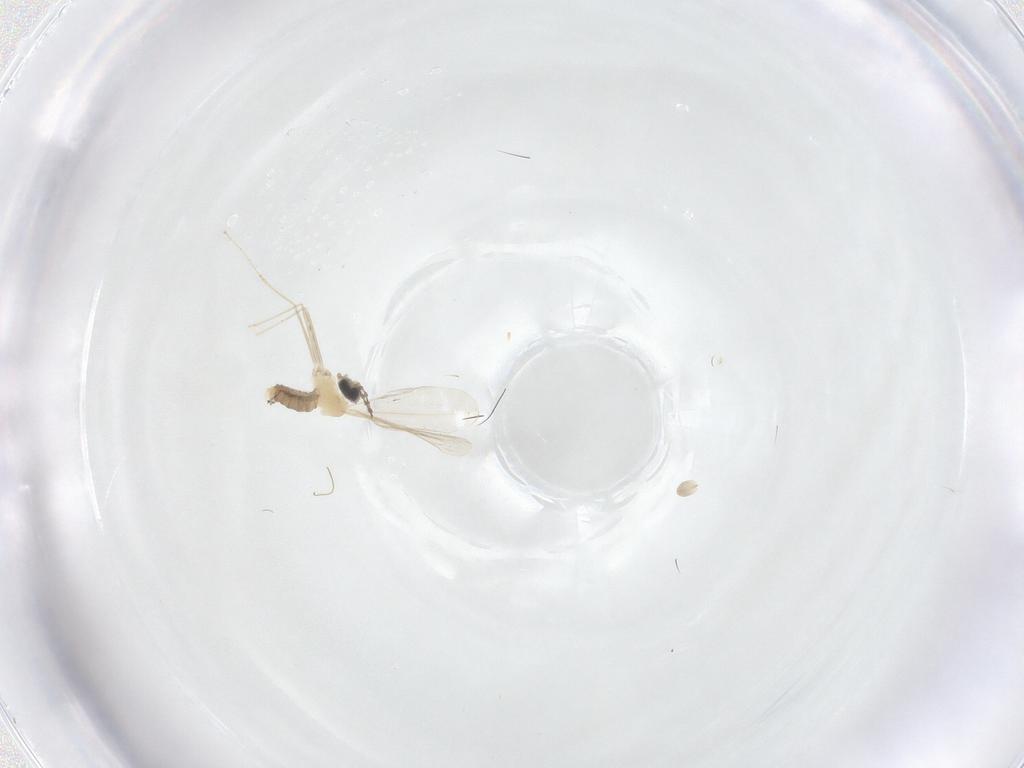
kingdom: Animalia
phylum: Arthropoda
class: Insecta
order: Diptera
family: Cecidomyiidae
